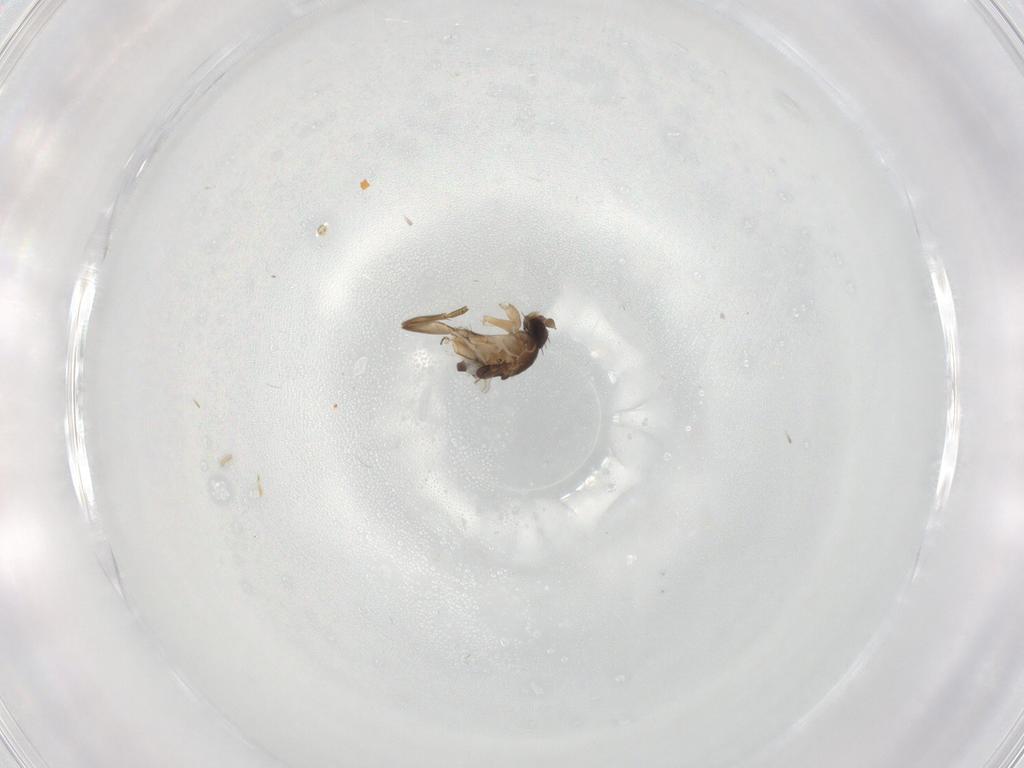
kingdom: Animalia
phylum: Arthropoda
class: Insecta
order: Diptera
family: Phoridae
